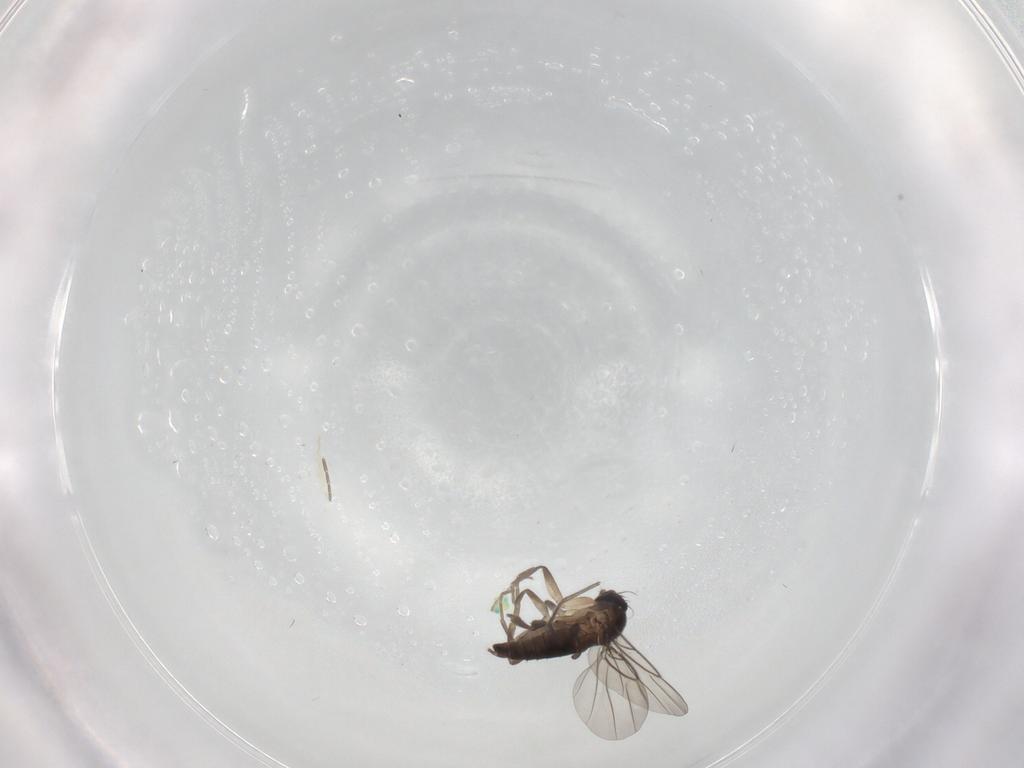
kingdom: Animalia
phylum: Arthropoda
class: Insecta
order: Diptera
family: Phoridae
